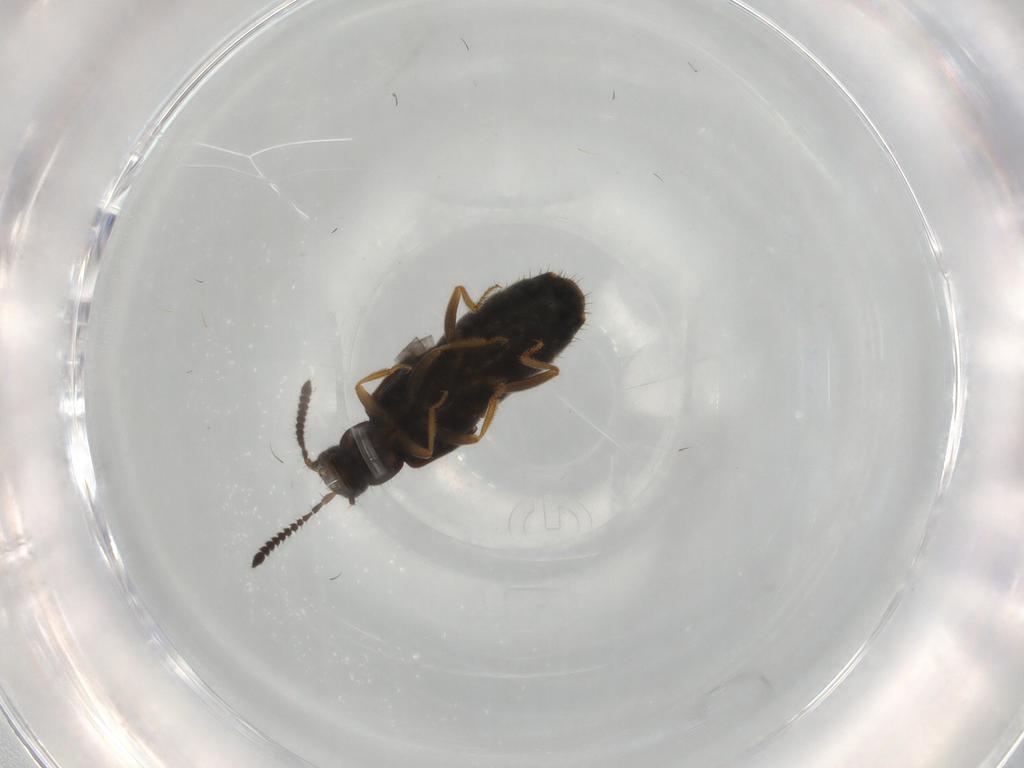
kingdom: Animalia
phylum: Arthropoda
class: Insecta
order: Coleoptera
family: Staphylinidae
